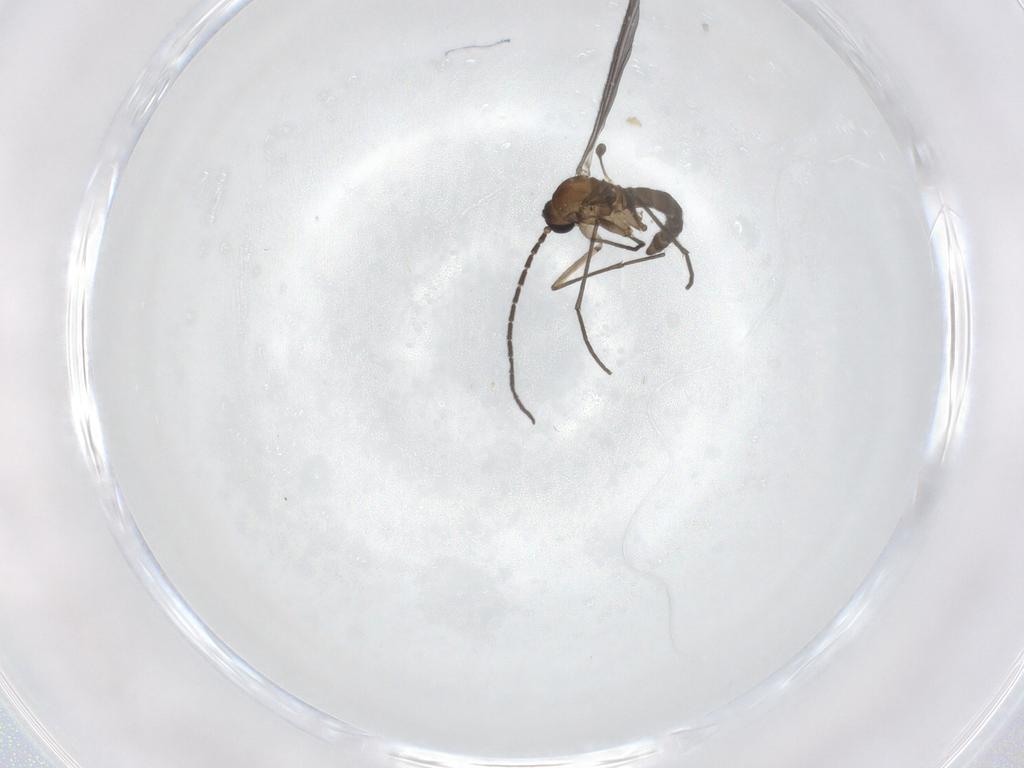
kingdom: Animalia
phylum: Arthropoda
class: Insecta
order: Diptera
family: Sciaridae
